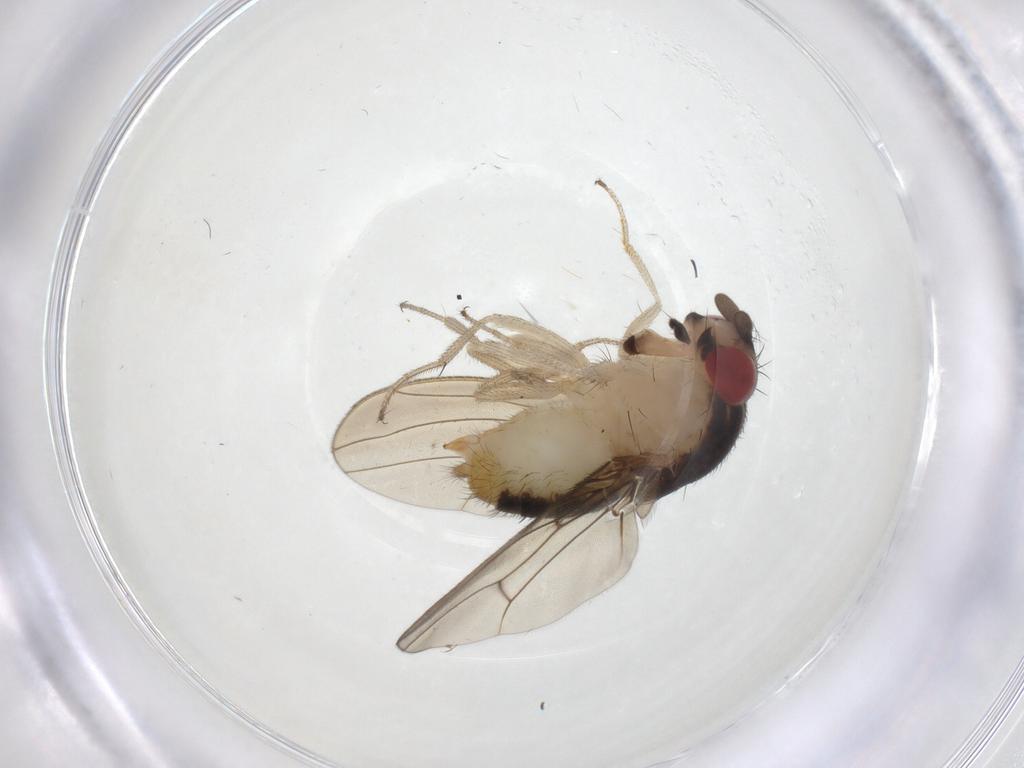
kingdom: Animalia
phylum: Arthropoda
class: Insecta
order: Diptera
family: Drosophilidae
